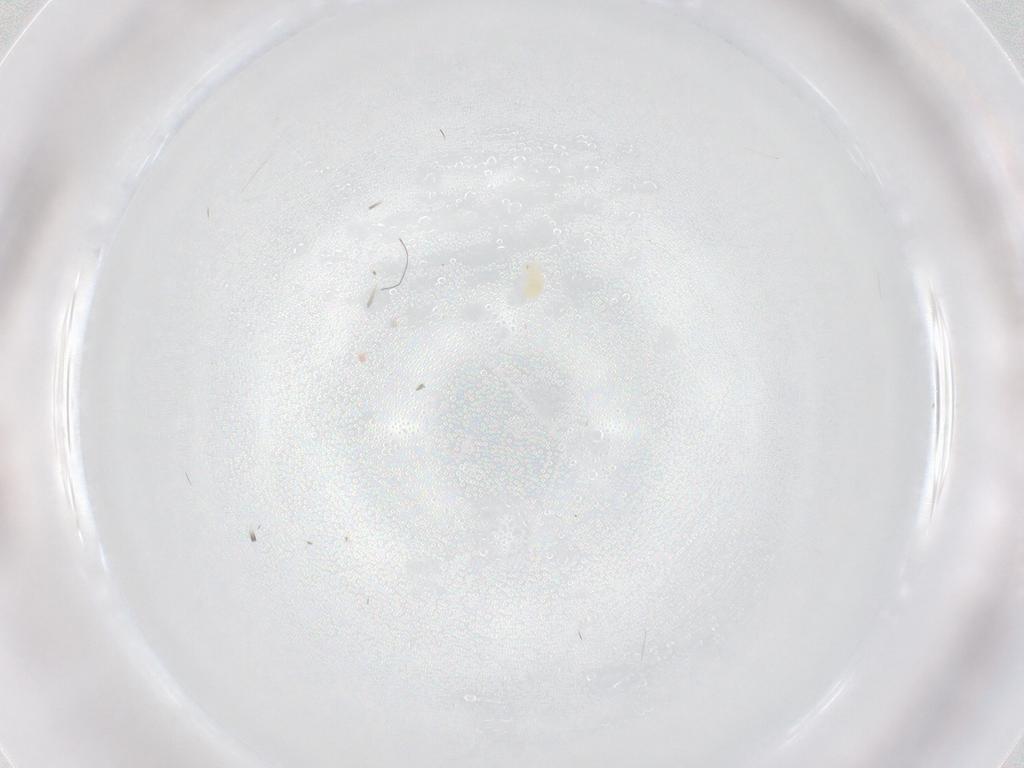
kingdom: Animalia
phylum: Arthropoda
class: Arachnida
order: Trombidiformes
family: Tetranychidae
